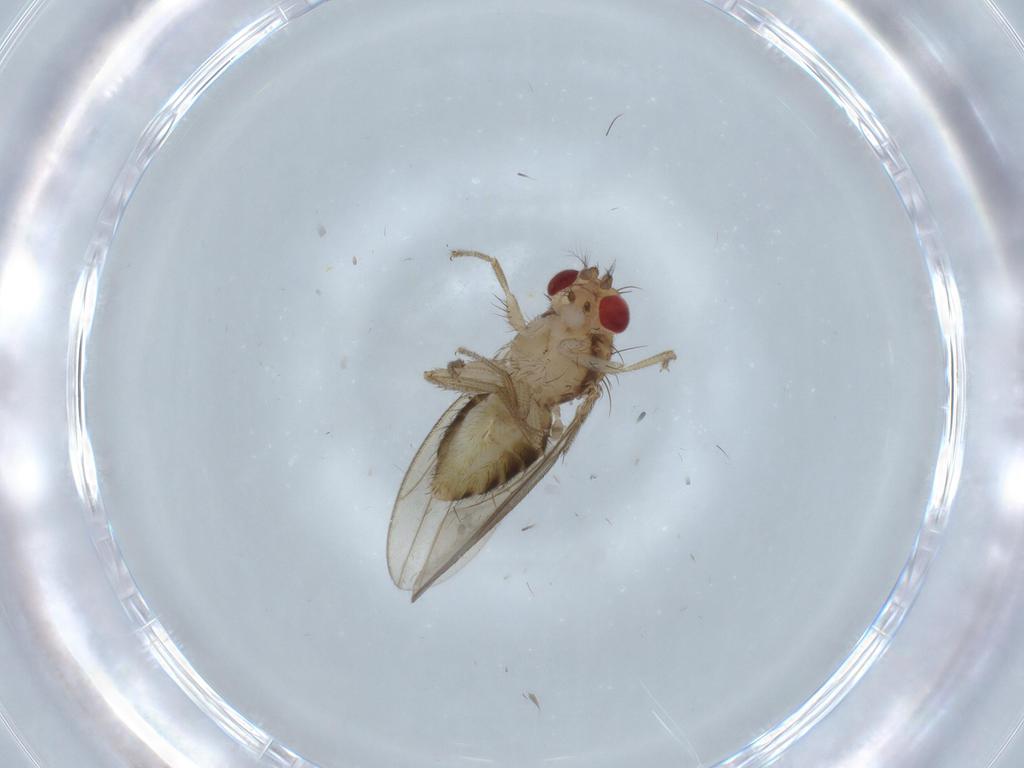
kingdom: Animalia
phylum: Arthropoda
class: Insecta
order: Diptera
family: Drosophilidae
